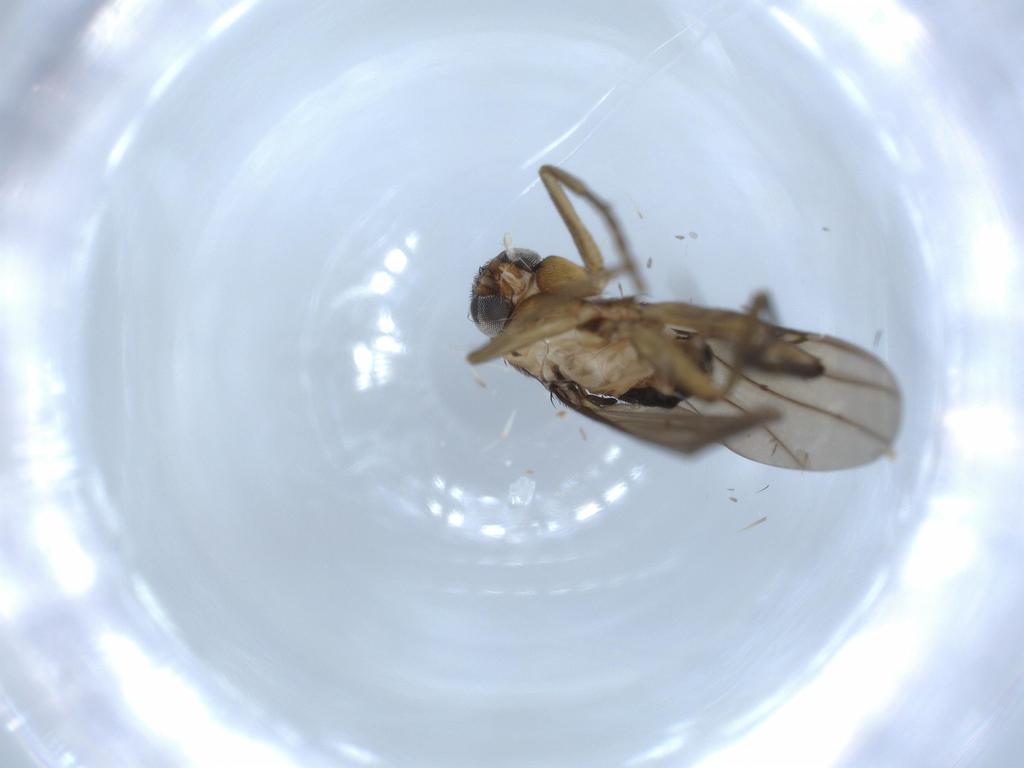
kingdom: Animalia
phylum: Arthropoda
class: Insecta
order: Diptera
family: Phoridae
